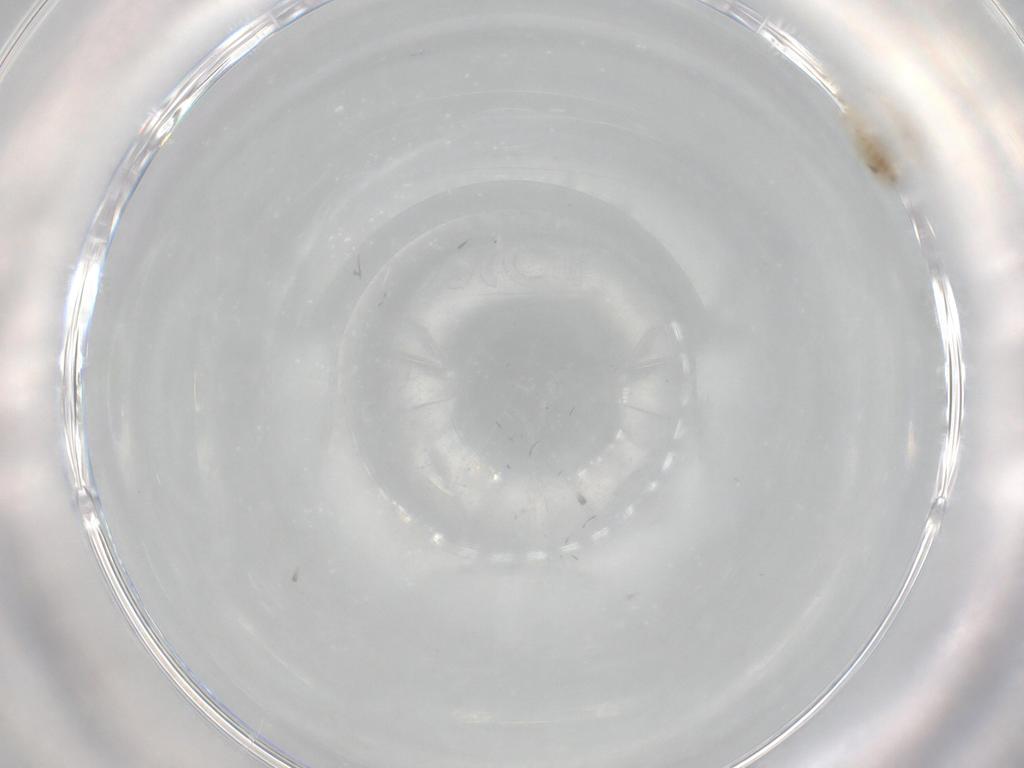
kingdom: Animalia
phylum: Arthropoda
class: Insecta
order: Diptera
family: Chironomidae
